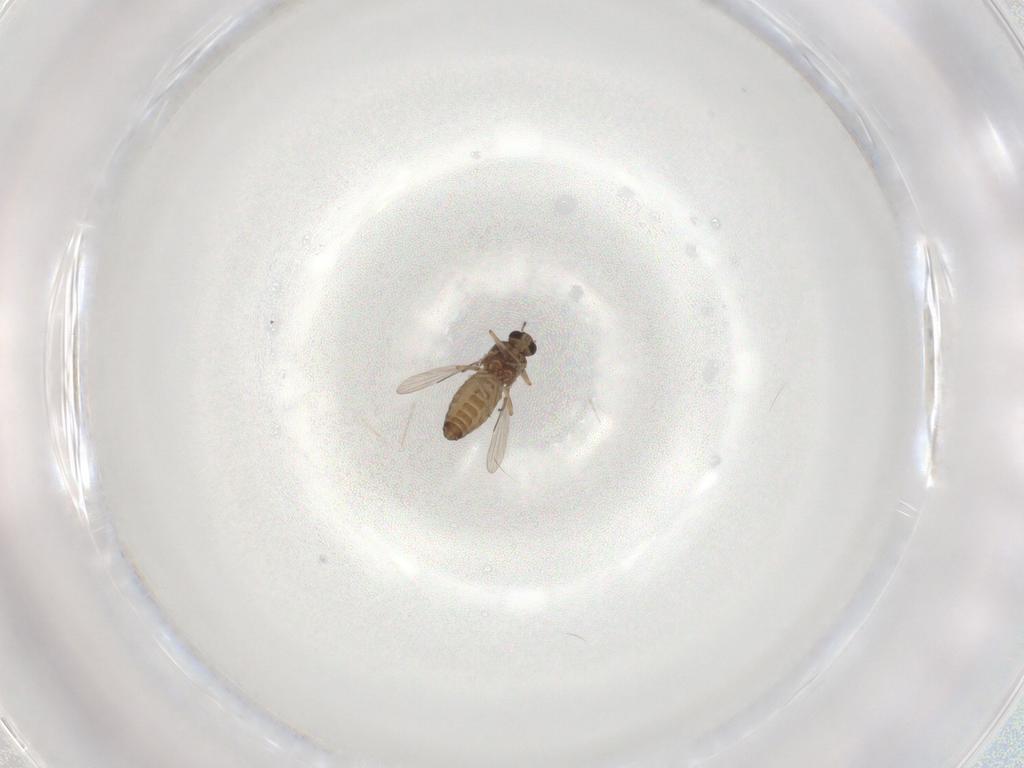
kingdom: Animalia
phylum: Arthropoda
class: Insecta
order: Diptera
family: Ceratopogonidae
